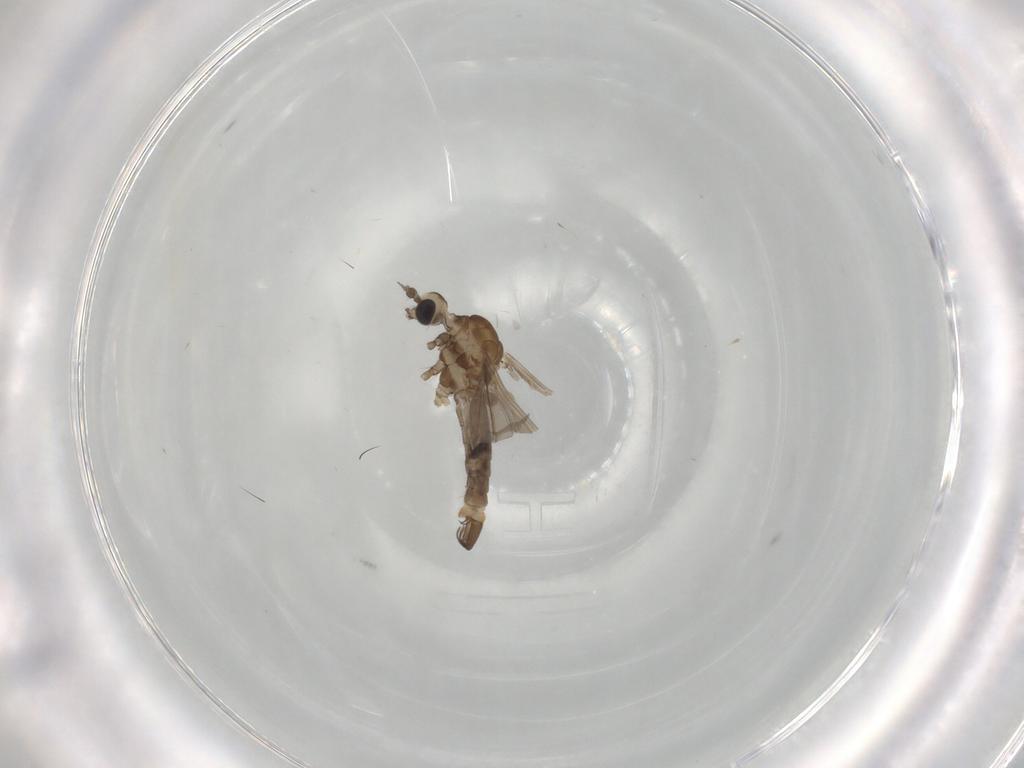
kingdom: Animalia
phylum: Arthropoda
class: Insecta
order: Diptera
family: Limoniidae
